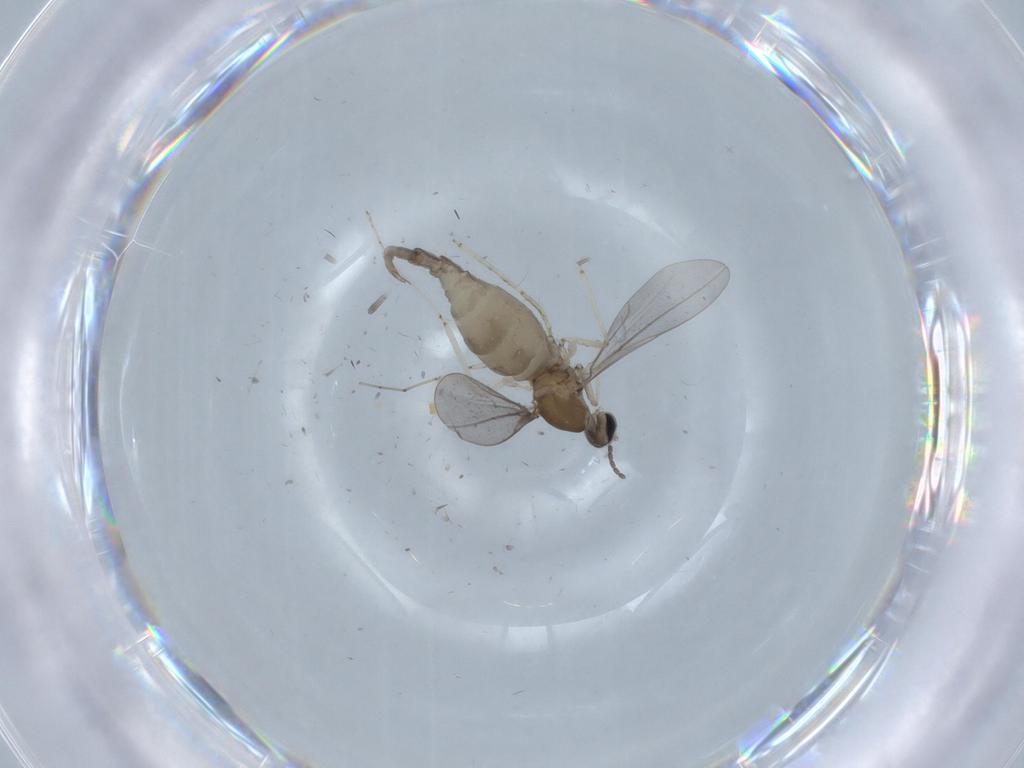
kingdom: Animalia
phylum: Arthropoda
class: Insecta
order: Diptera
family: Cecidomyiidae
